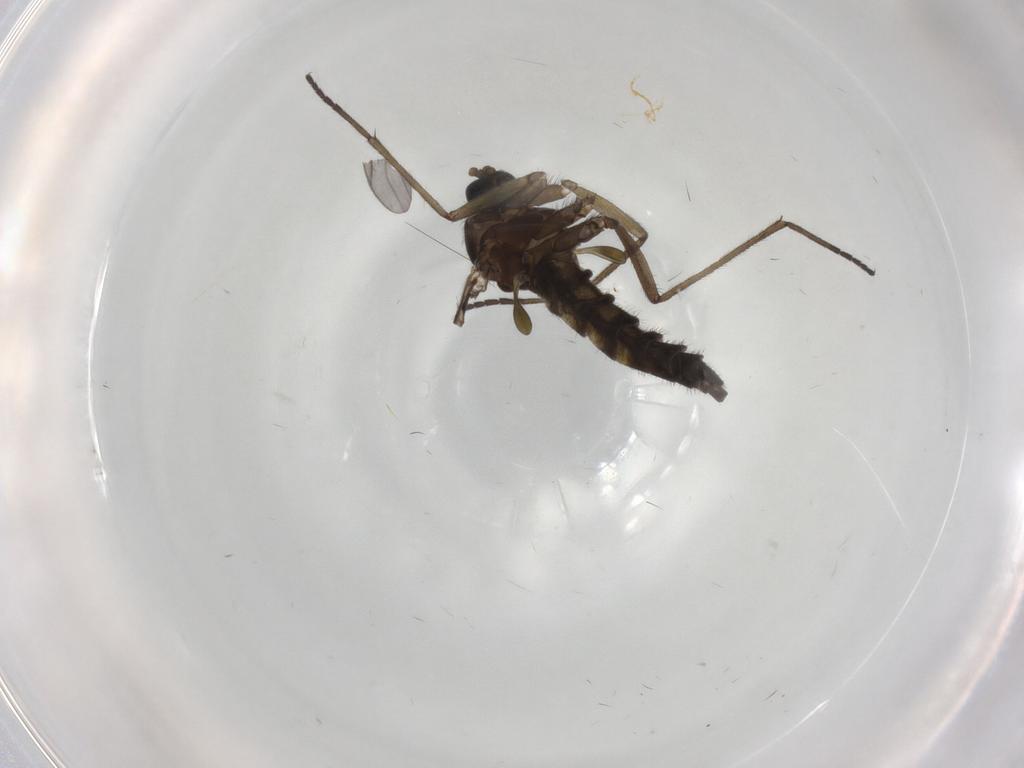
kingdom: Animalia
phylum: Arthropoda
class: Insecta
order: Diptera
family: Sciaridae
